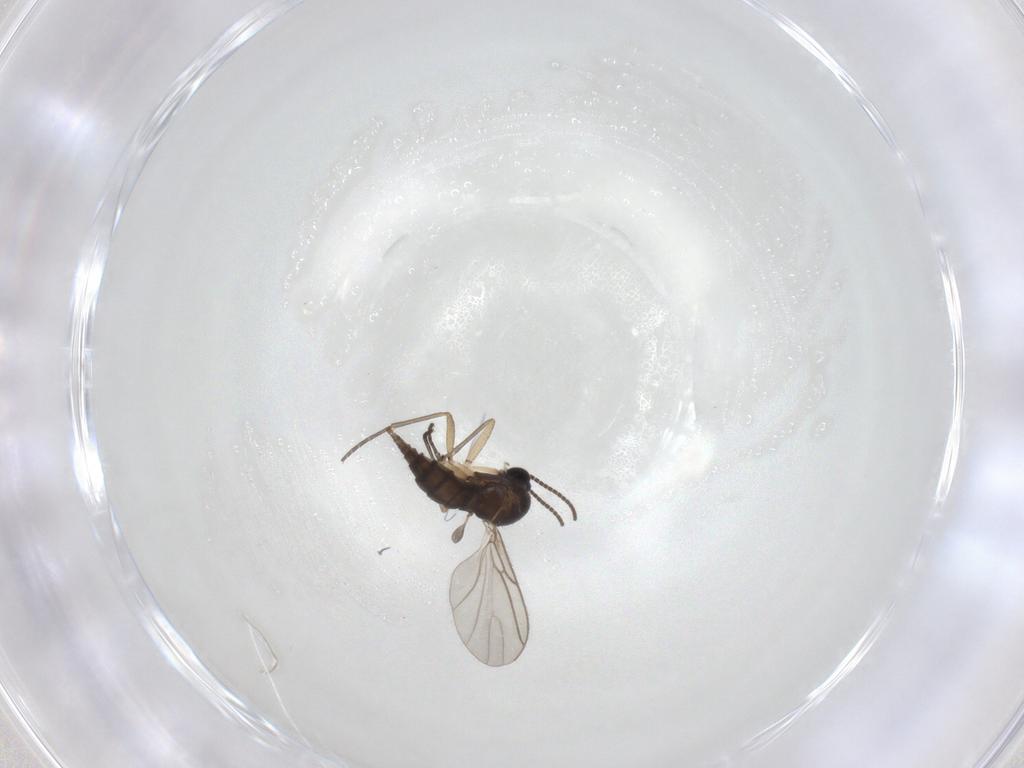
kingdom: Animalia
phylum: Arthropoda
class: Insecta
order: Diptera
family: Sciaridae
